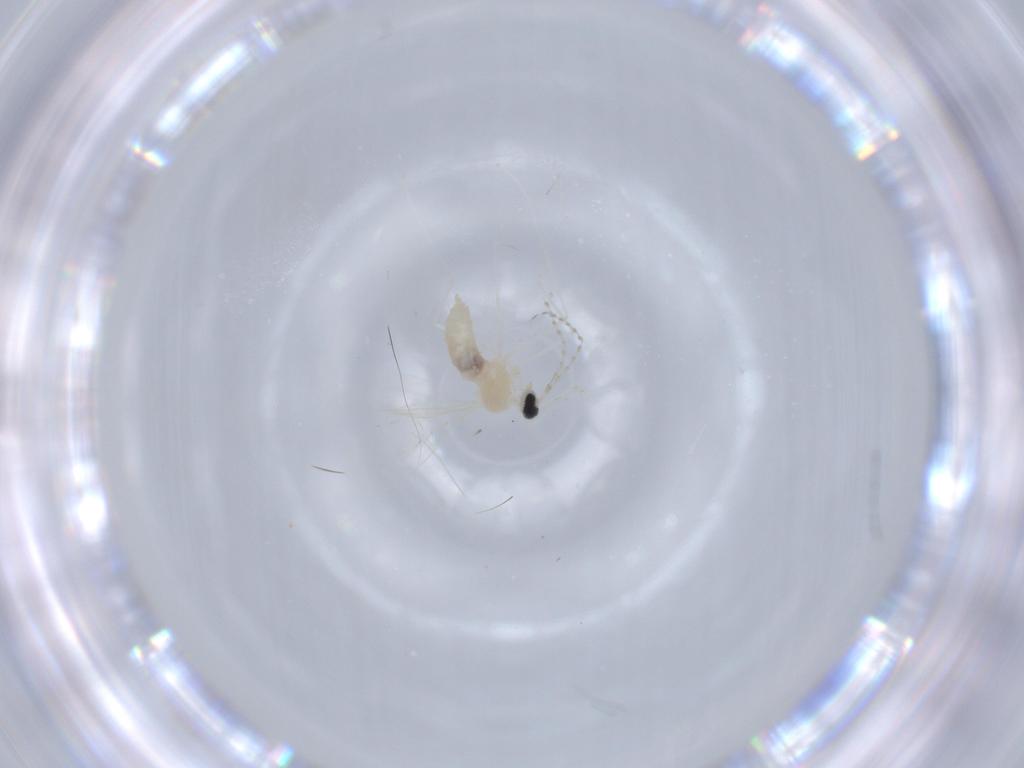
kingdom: Animalia
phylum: Arthropoda
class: Insecta
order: Diptera
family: Cecidomyiidae
